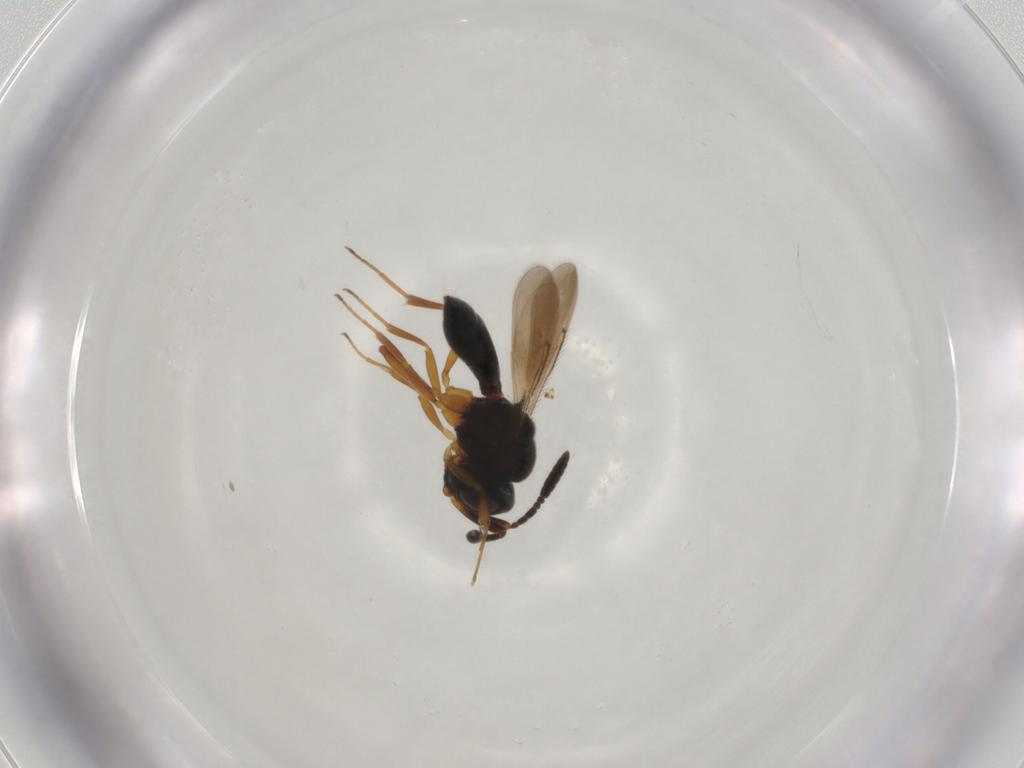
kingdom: Animalia
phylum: Arthropoda
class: Insecta
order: Hymenoptera
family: Scelionidae
